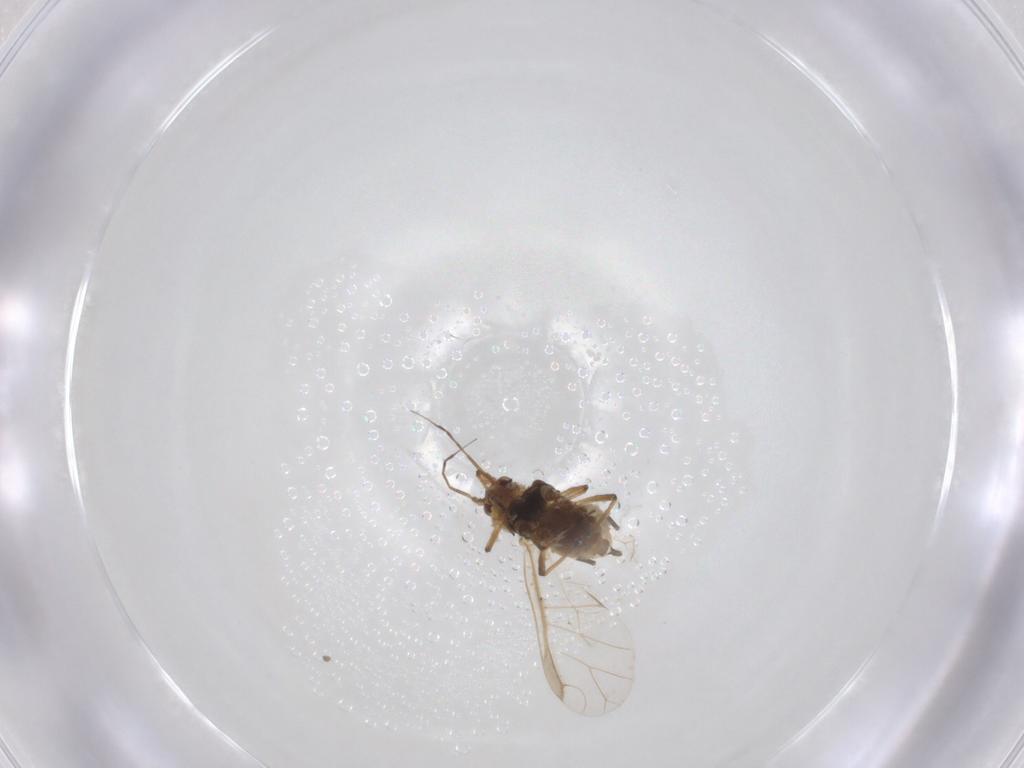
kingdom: Animalia
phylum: Arthropoda
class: Insecta
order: Hemiptera
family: Aphididae
